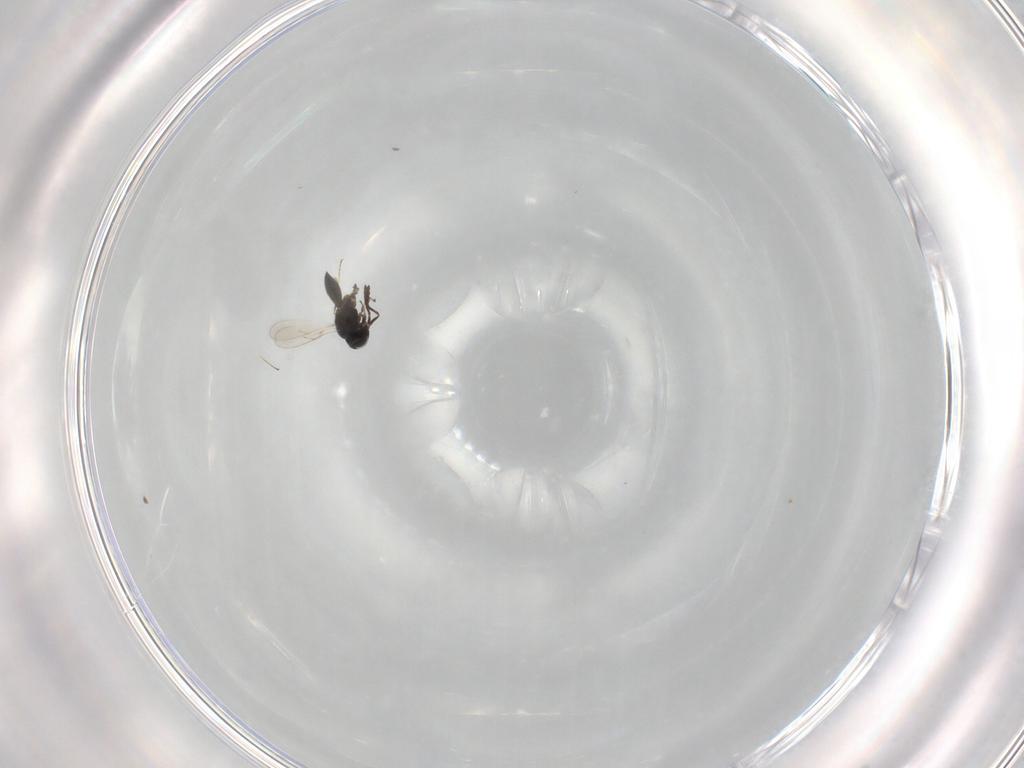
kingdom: Animalia
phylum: Arthropoda
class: Insecta
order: Hymenoptera
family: Scelionidae
